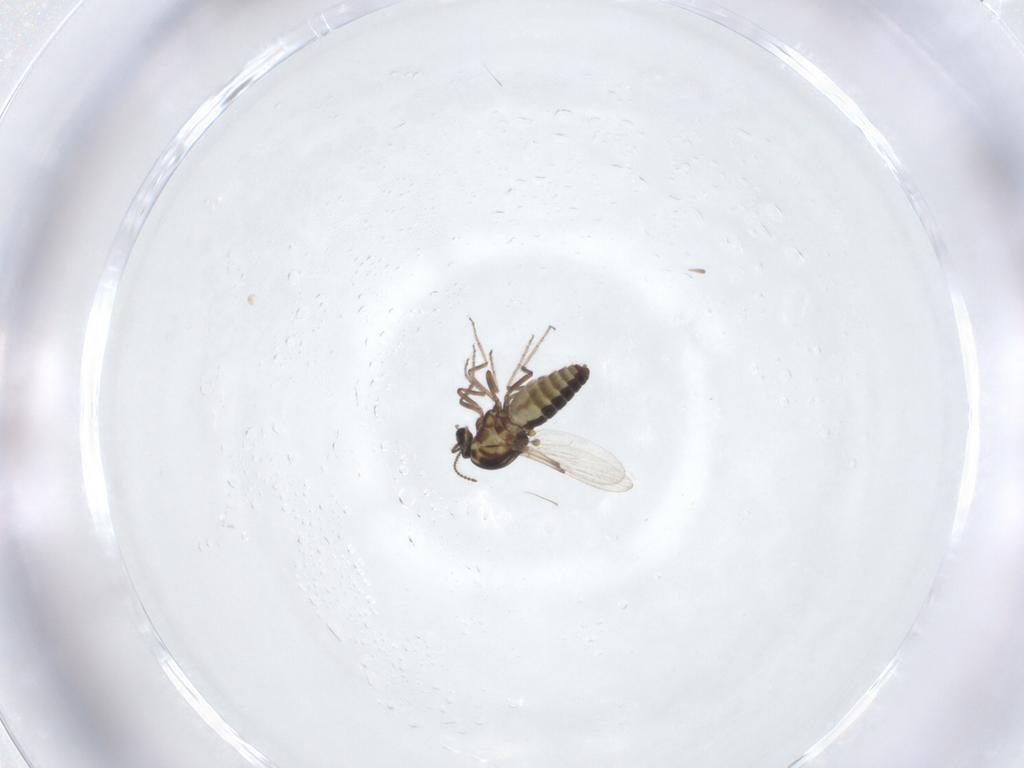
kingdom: Animalia
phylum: Arthropoda
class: Insecta
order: Diptera
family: Ceratopogonidae
